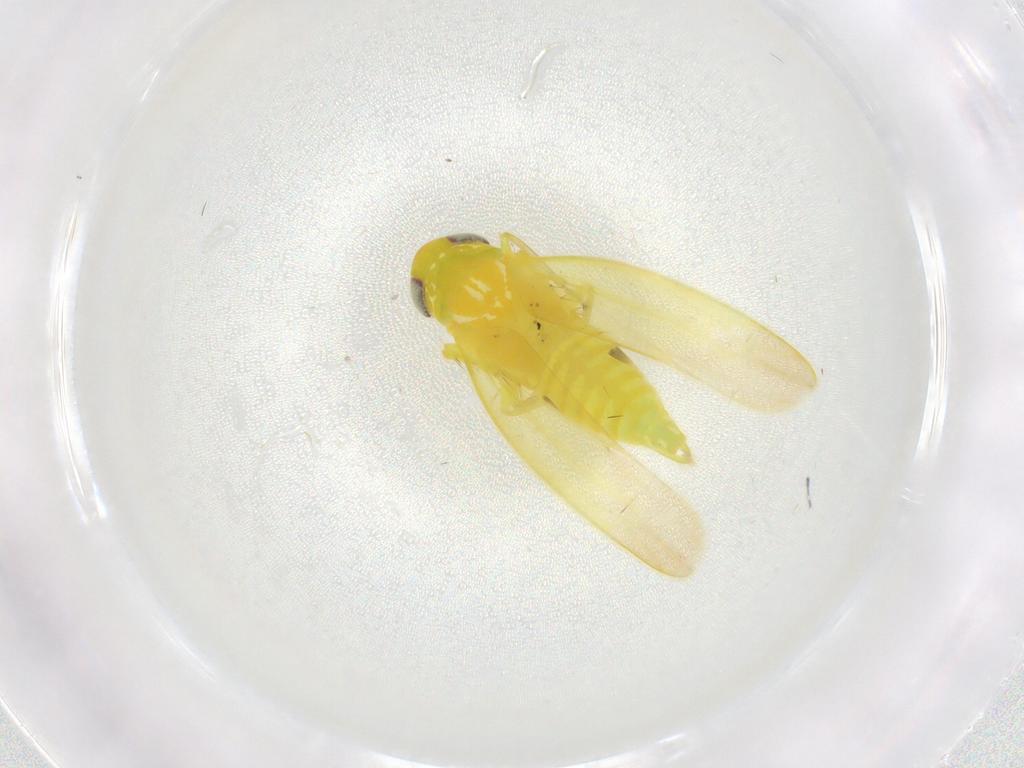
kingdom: Animalia
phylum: Arthropoda
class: Insecta
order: Hemiptera
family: Cicadellidae
